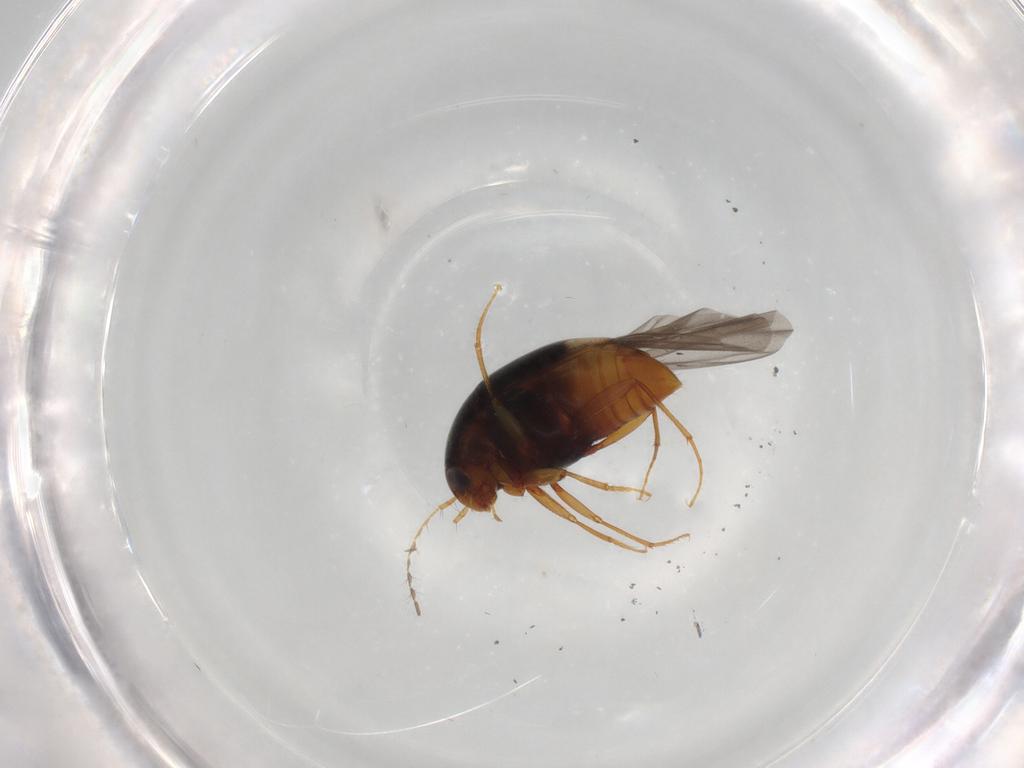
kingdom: Animalia
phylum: Arthropoda
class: Insecta
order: Coleoptera
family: Staphylinidae
